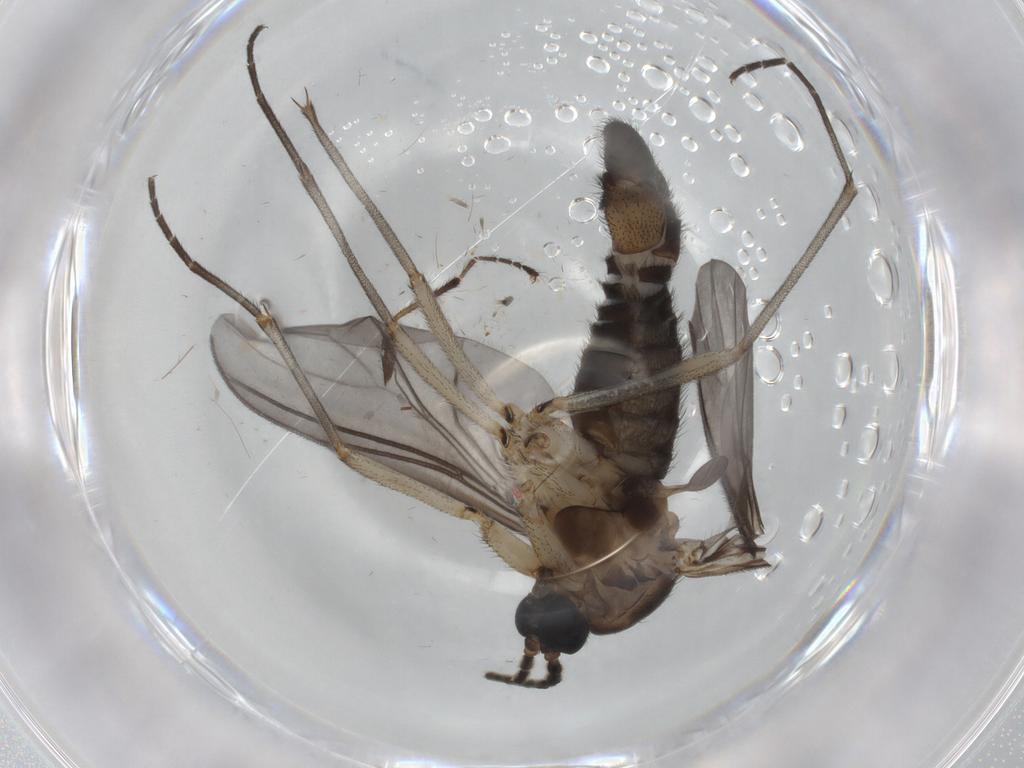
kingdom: Animalia
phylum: Arthropoda
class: Insecta
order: Diptera
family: Sciaridae
